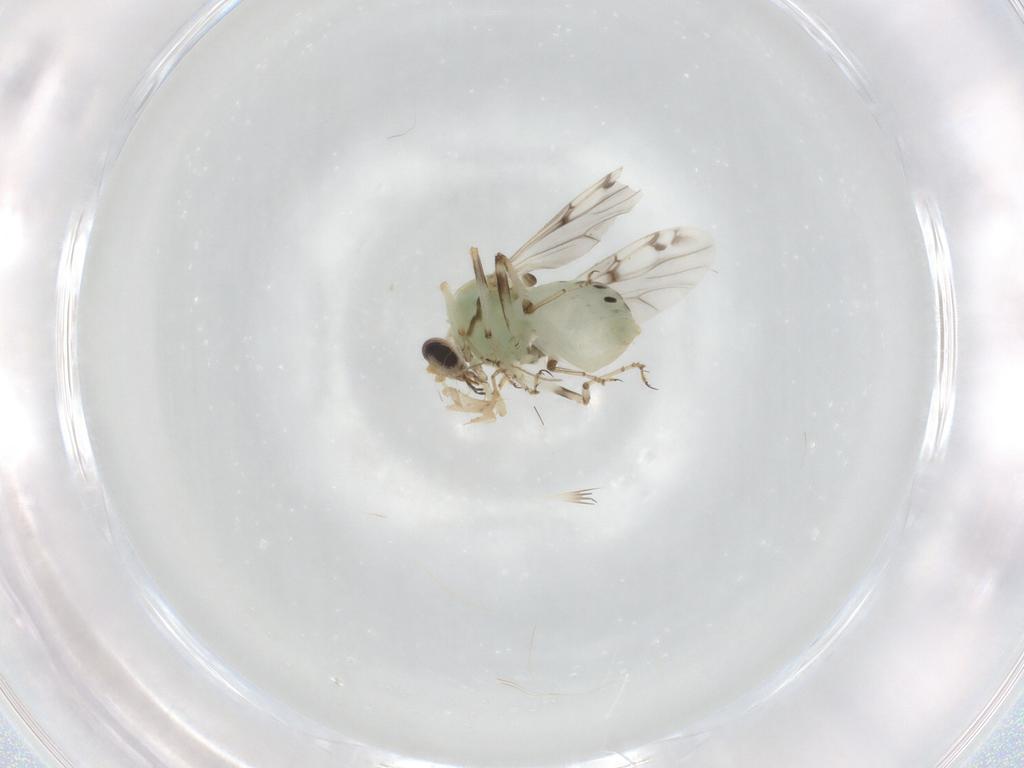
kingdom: Animalia
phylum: Arthropoda
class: Insecta
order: Diptera
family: Ceratopogonidae
